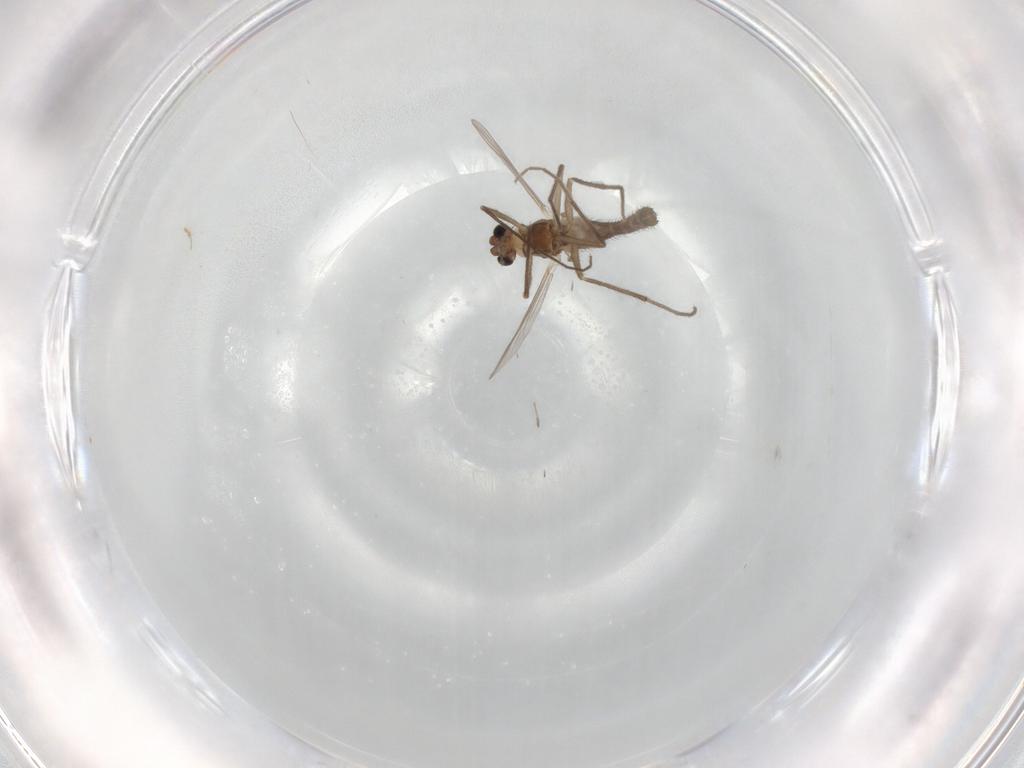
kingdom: Animalia
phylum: Arthropoda
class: Insecta
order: Diptera
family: Chironomidae
